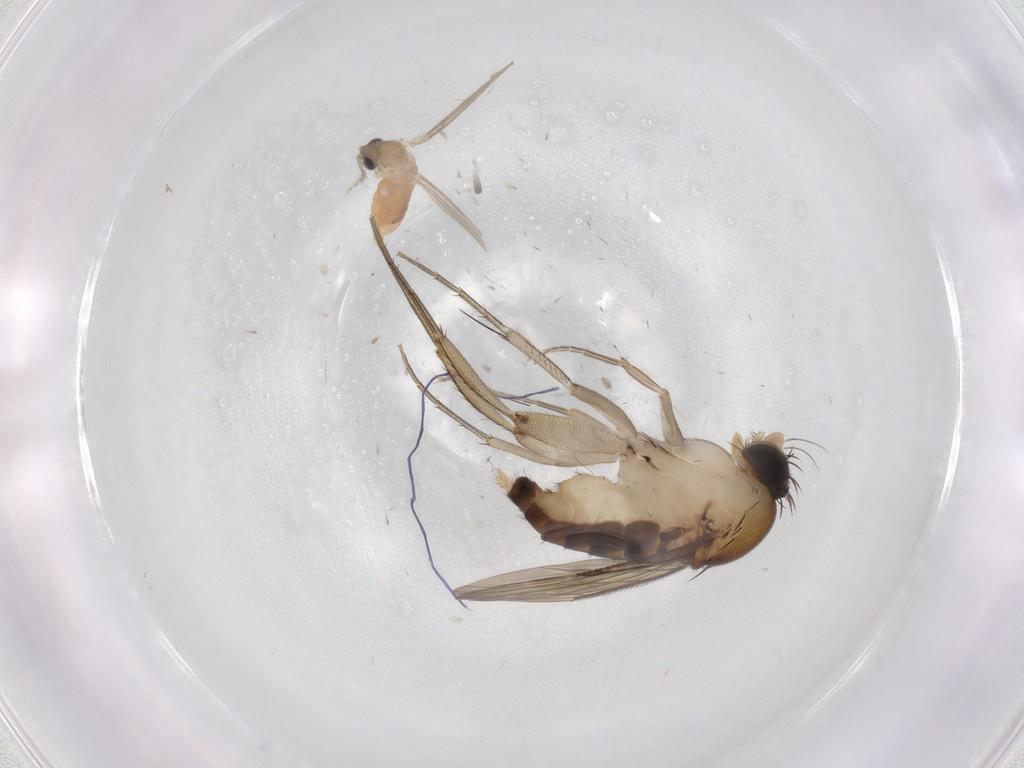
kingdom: Animalia
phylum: Arthropoda
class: Insecta
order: Diptera
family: Phoridae
